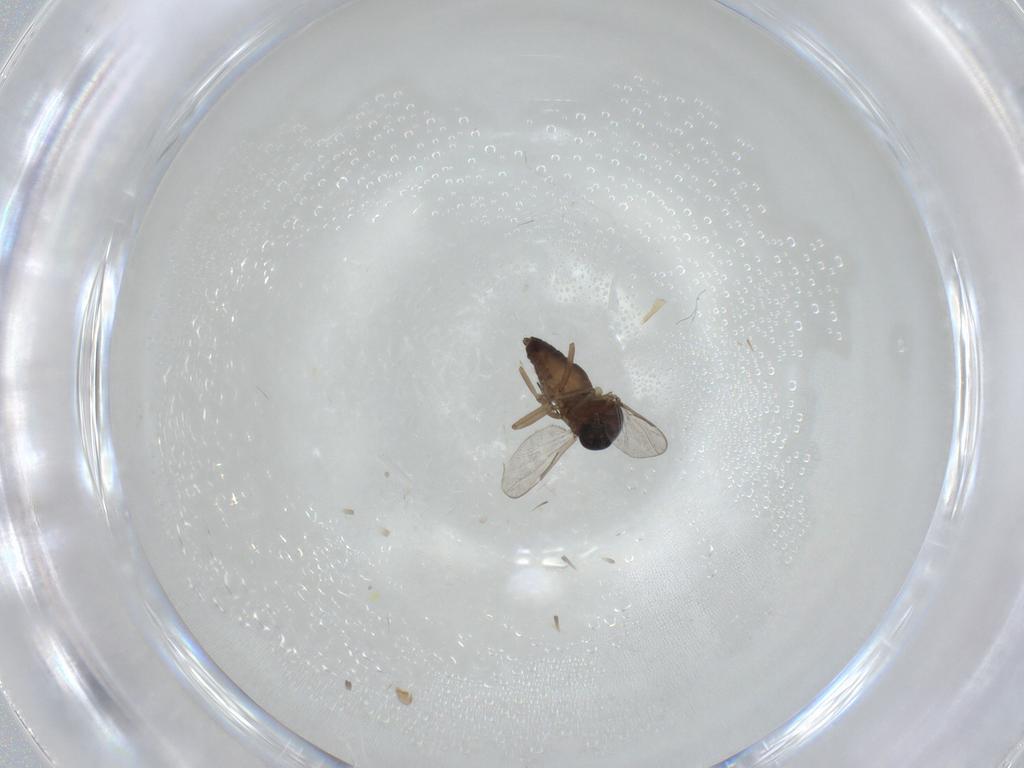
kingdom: Animalia
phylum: Arthropoda
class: Insecta
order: Diptera
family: Ceratopogonidae
